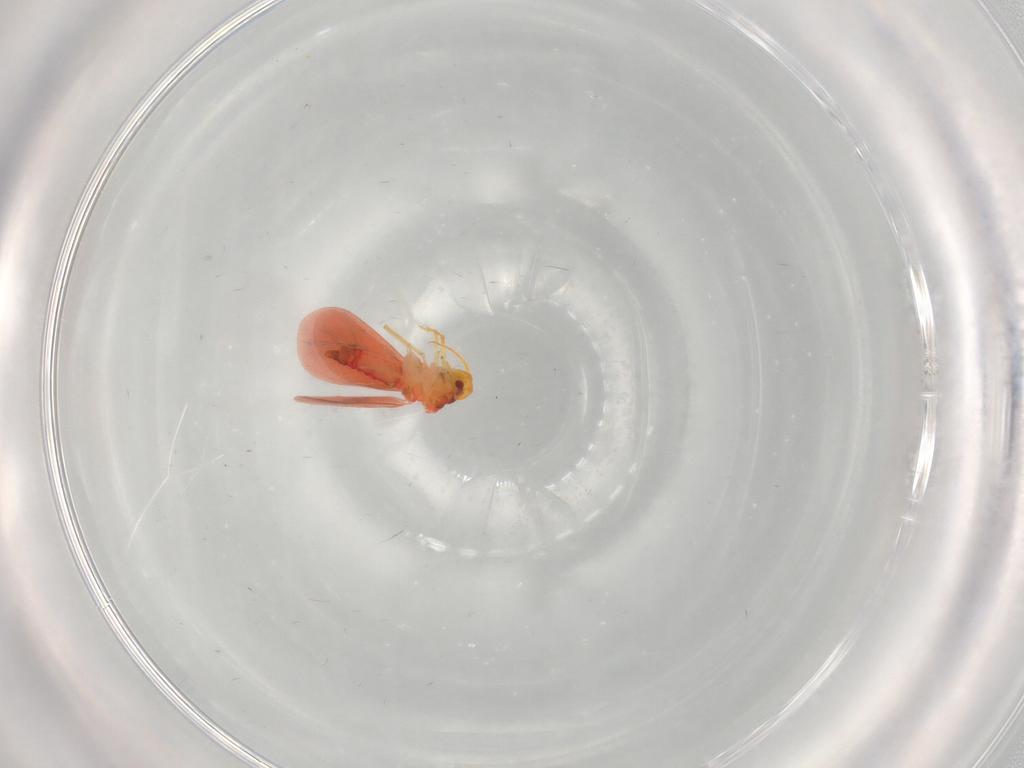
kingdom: Animalia
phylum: Arthropoda
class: Insecta
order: Hemiptera
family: Aleyrodidae
